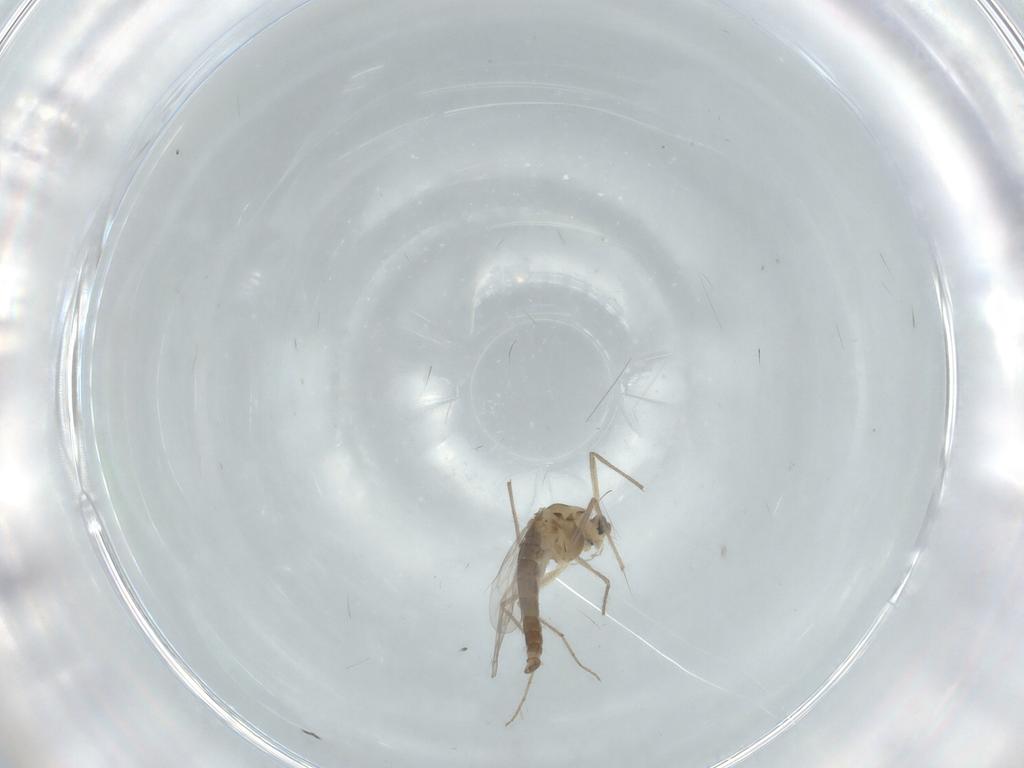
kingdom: Animalia
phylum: Arthropoda
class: Insecta
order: Diptera
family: Chironomidae
